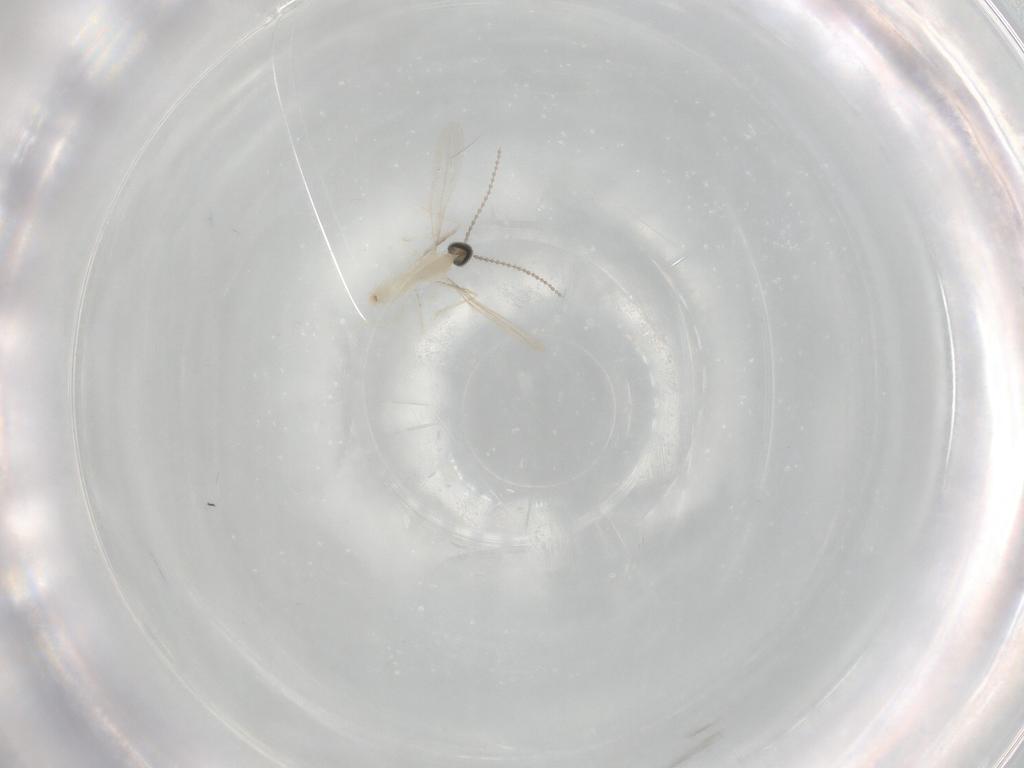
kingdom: Animalia
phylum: Arthropoda
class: Insecta
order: Diptera
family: Cecidomyiidae
